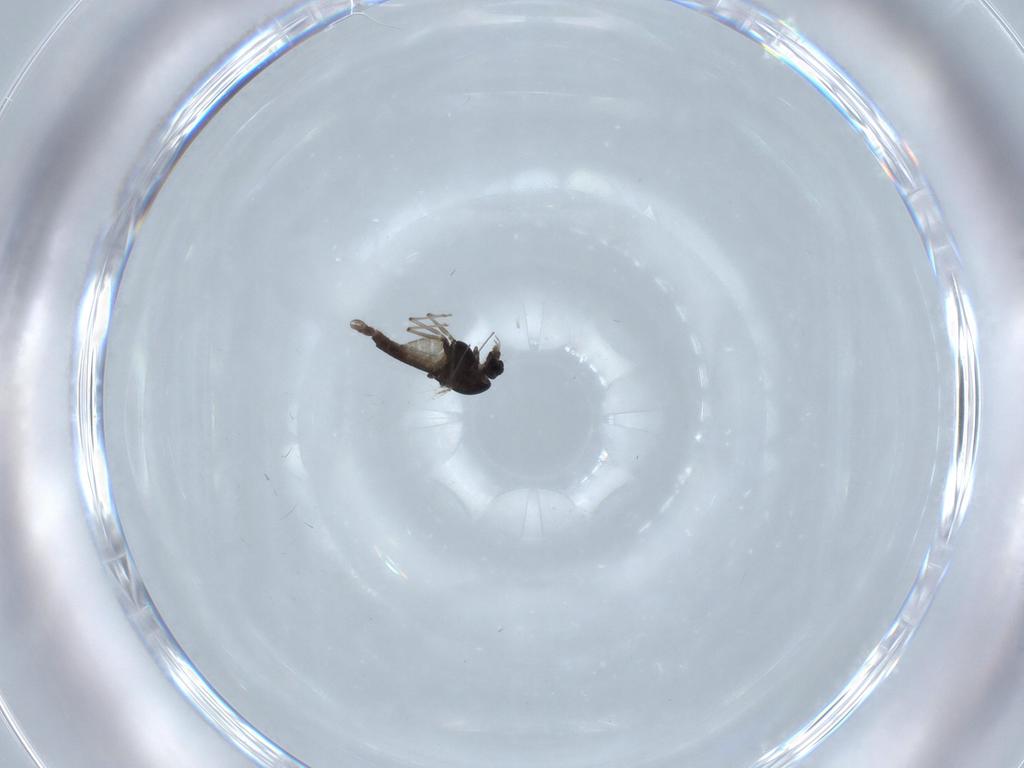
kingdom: Animalia
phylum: Arthropoda
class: Insecta
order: Diptera
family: Chironomidae
